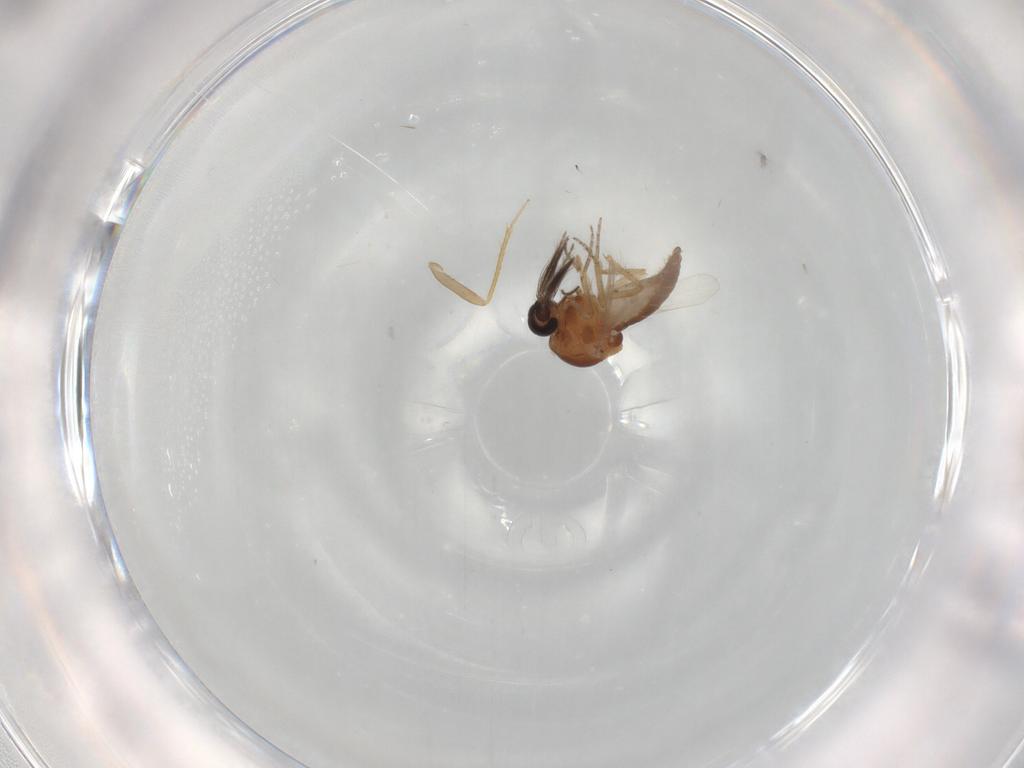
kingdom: Animalia
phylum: Arthropoda
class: Insecta
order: Diptera
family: Ceratopogonidae
